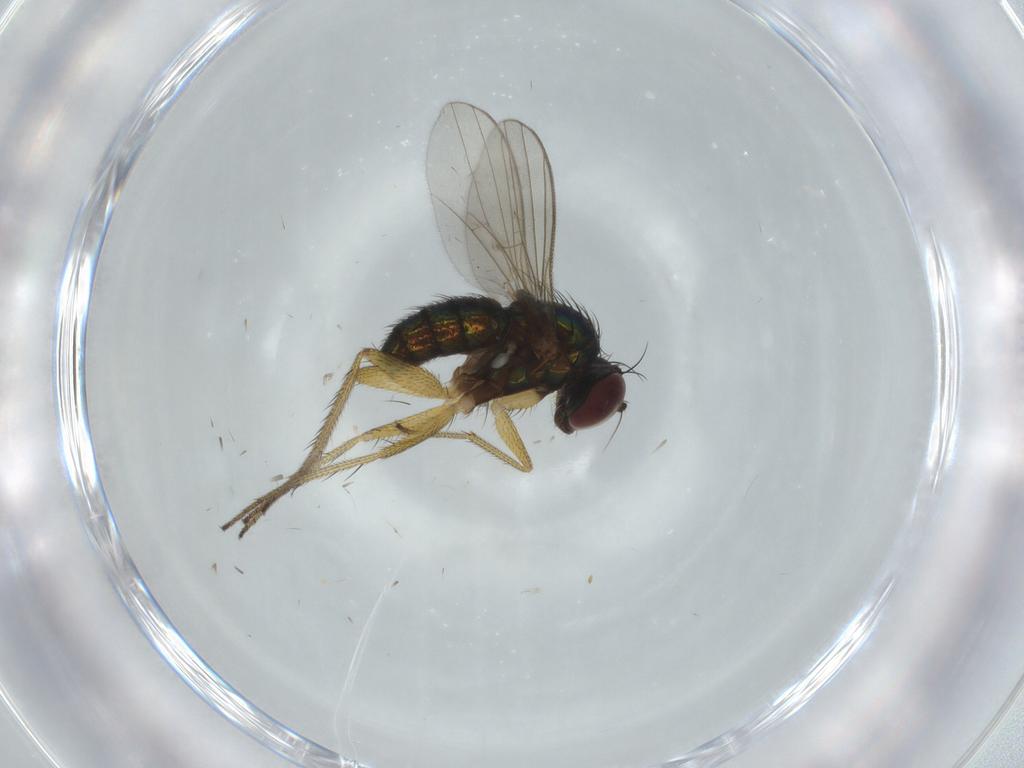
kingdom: Animalia
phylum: Arthropoda
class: Insecta
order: Diptera
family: Dolichopodidae
